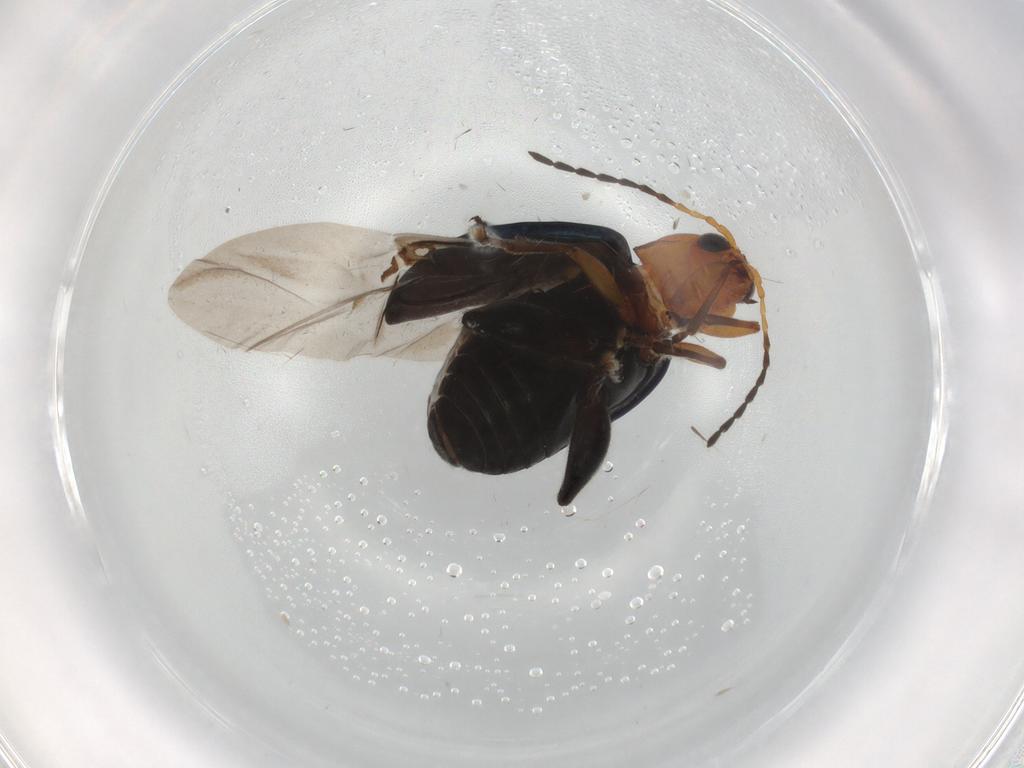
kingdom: Animalia
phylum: Arthropoda
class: Insecta
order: Coleoptera
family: Chrysomelidae
